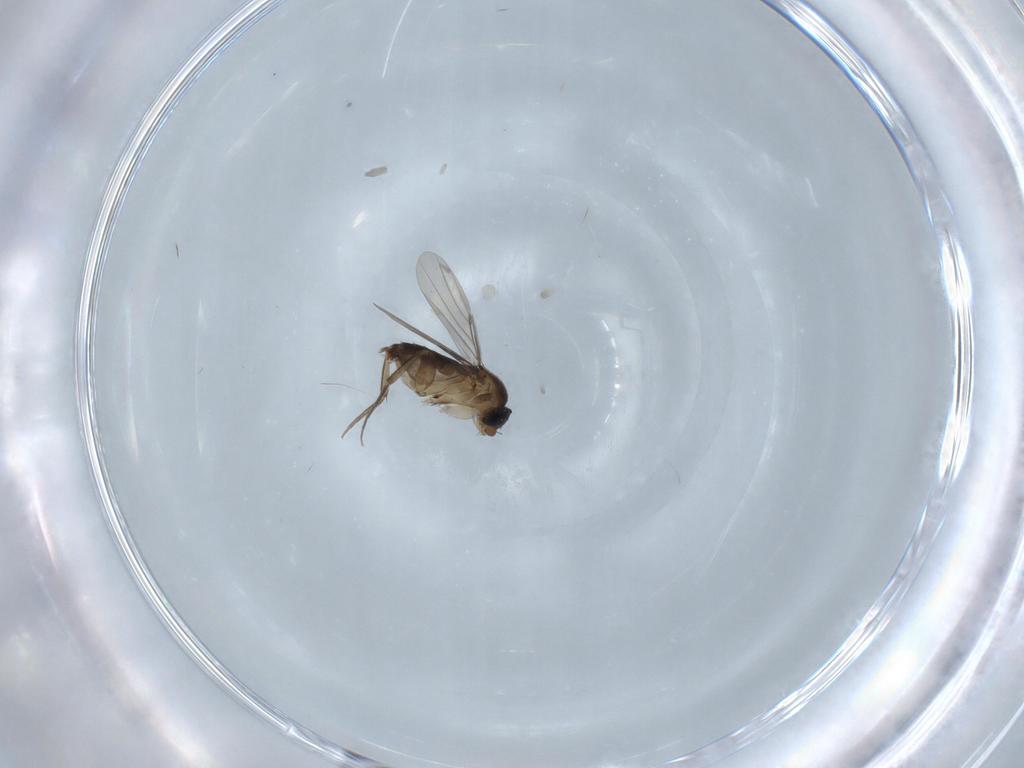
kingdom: Animalia
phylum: Arthropoda
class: Insecta
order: Diptera
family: Phoridae
